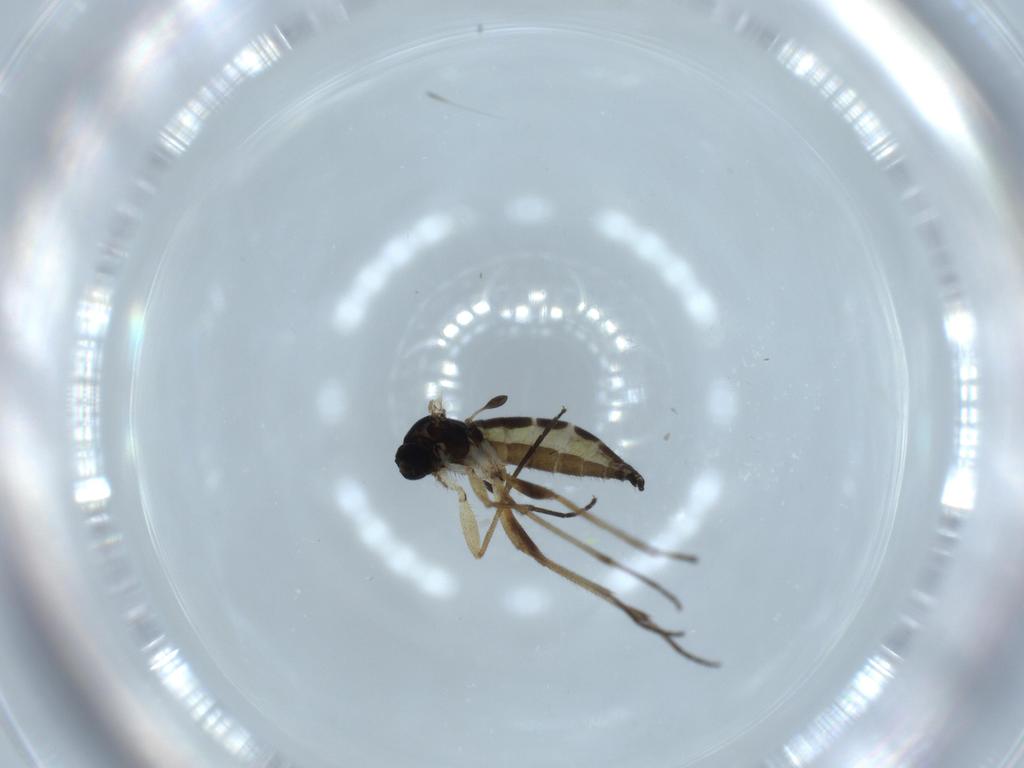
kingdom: Animalia
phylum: Arthropoda
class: Insecta
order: Diptera
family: Sciaridae
